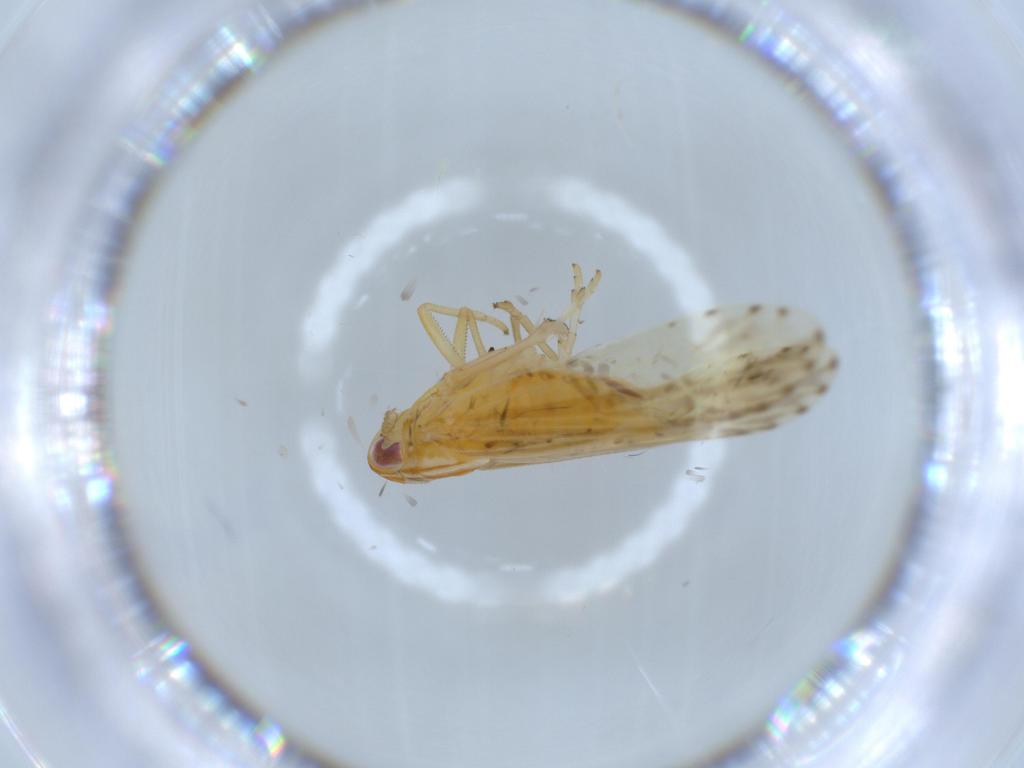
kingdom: Animalia
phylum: Arthropoda
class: Insecta
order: Hemiptera
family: Delphacidae
